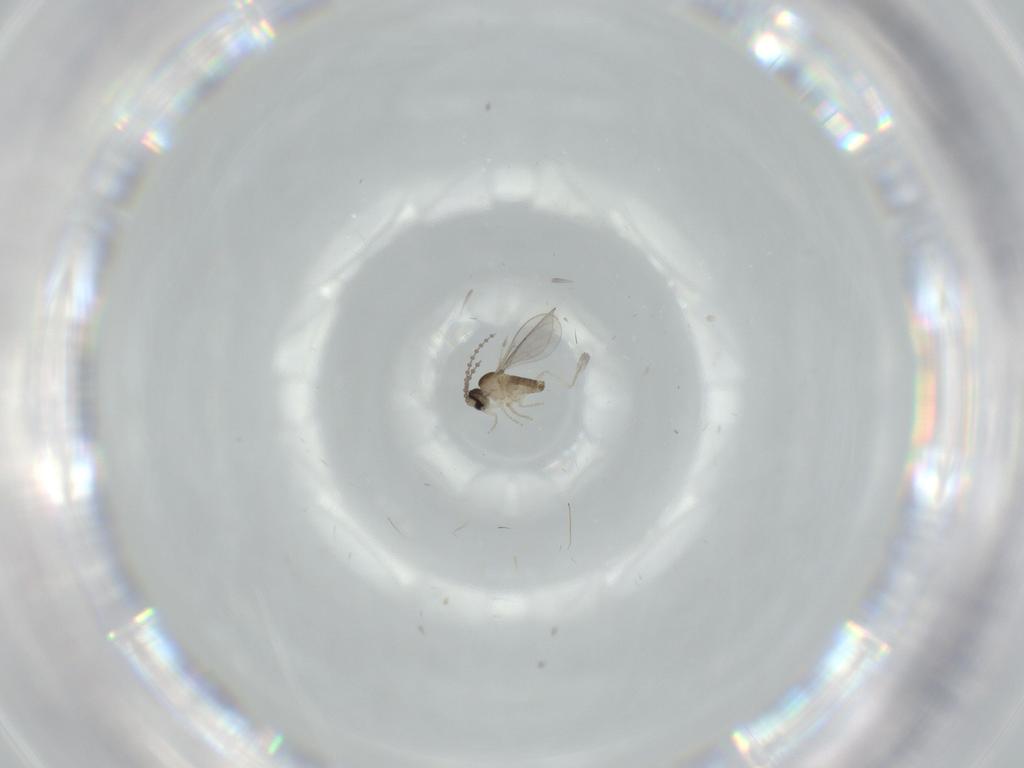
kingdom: Animalia
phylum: Arthropoda
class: Insecta
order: Diptera
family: Cecidomyiidae
